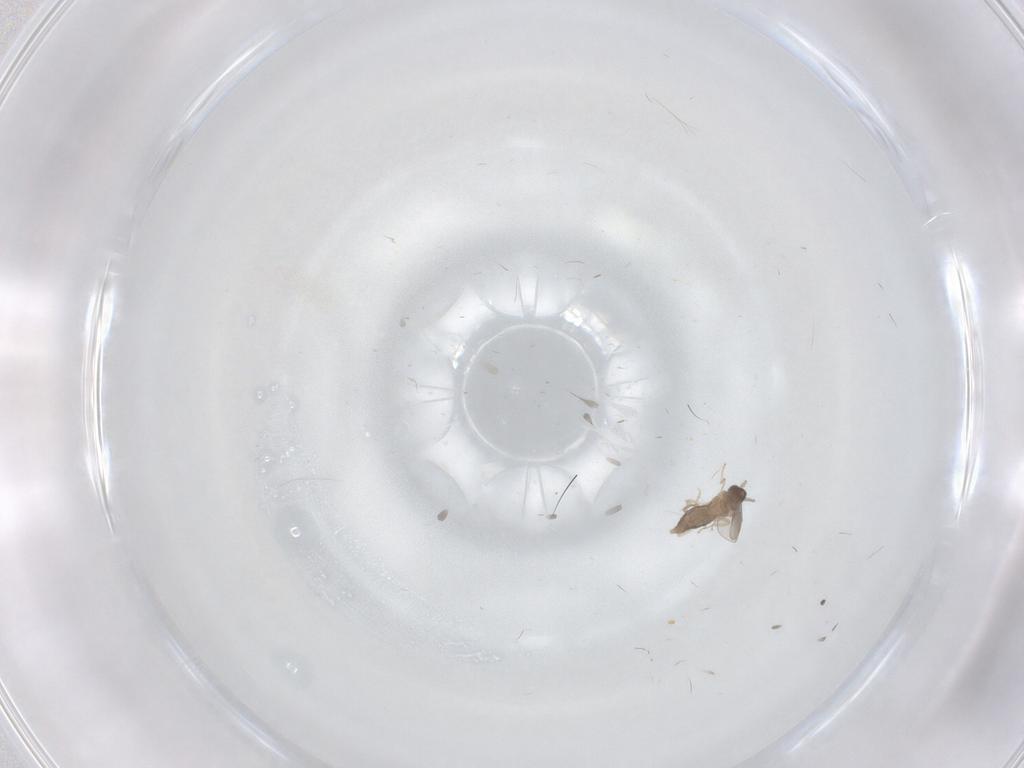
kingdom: Animalia
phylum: Arthropoda
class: Insecta
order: Diptera
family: Cecidomyiidae
